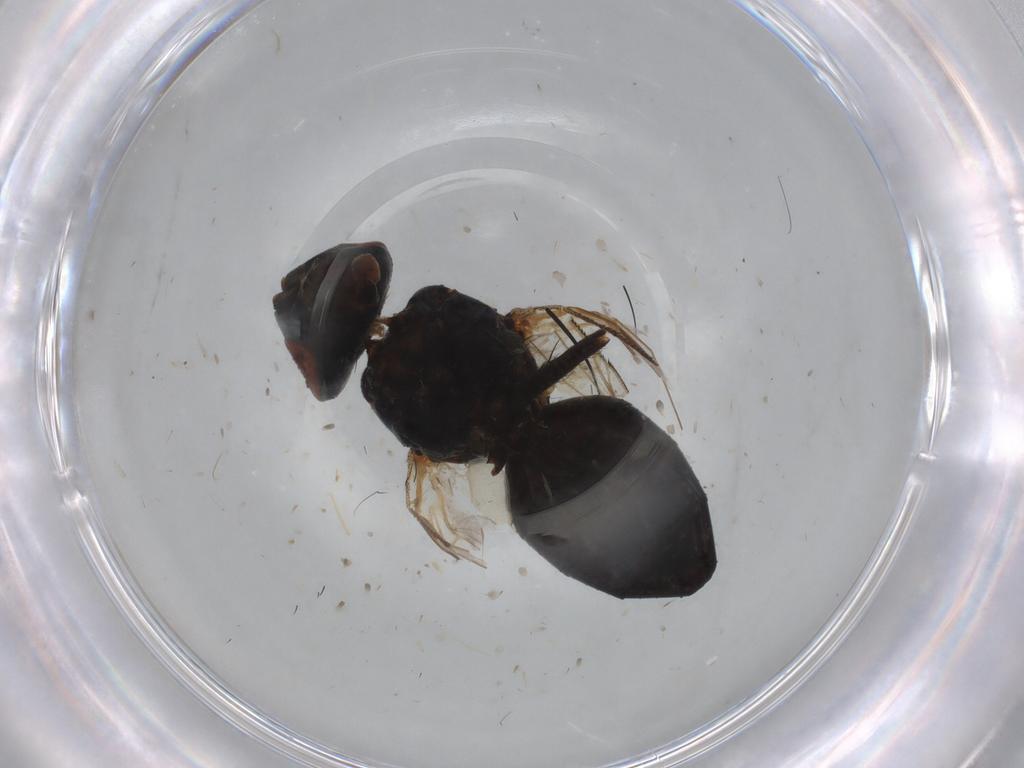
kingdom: Animalia
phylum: Arthropoda
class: Insecta
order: Diptera
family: Sarcophagidae
